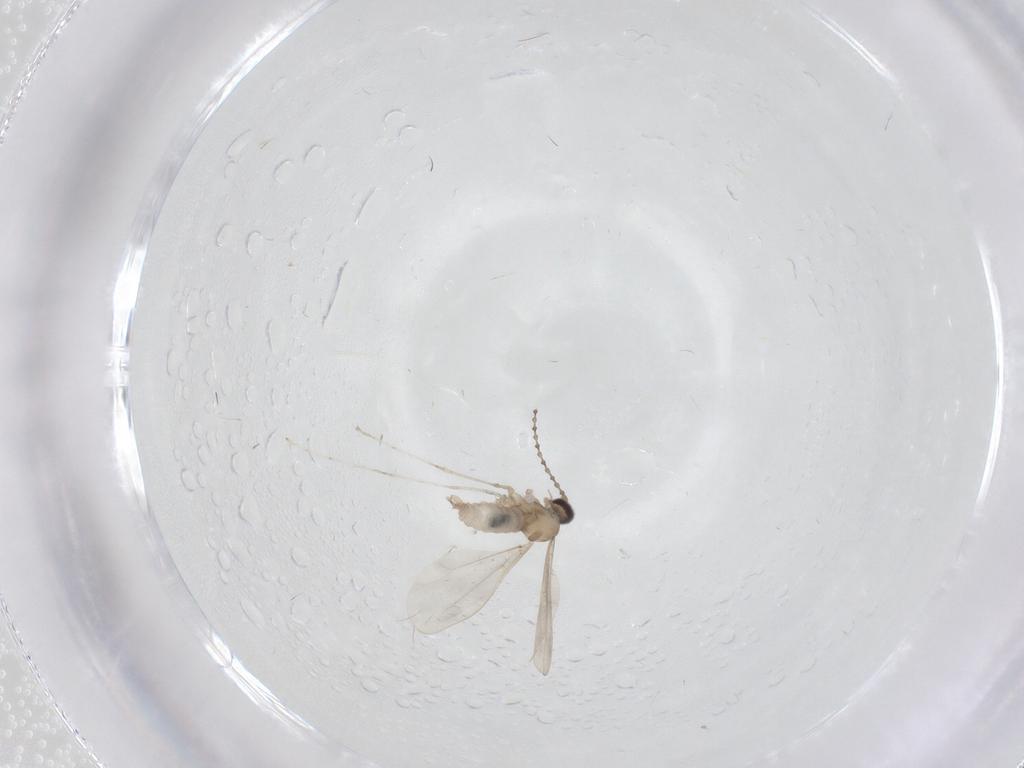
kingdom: Animalia
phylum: Arthropoda
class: Insecta
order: Diptera
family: Cecidomyiidae
